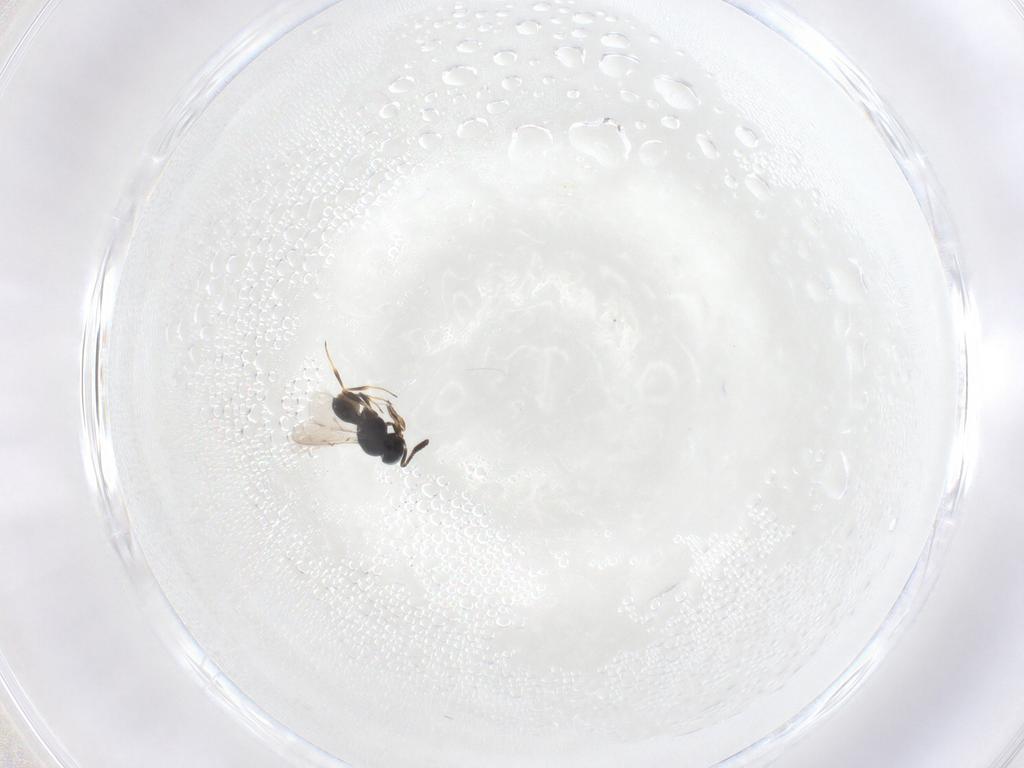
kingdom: Animalia
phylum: Arthropoda
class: Insecta
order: Hymenoptera
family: Scelionidae
